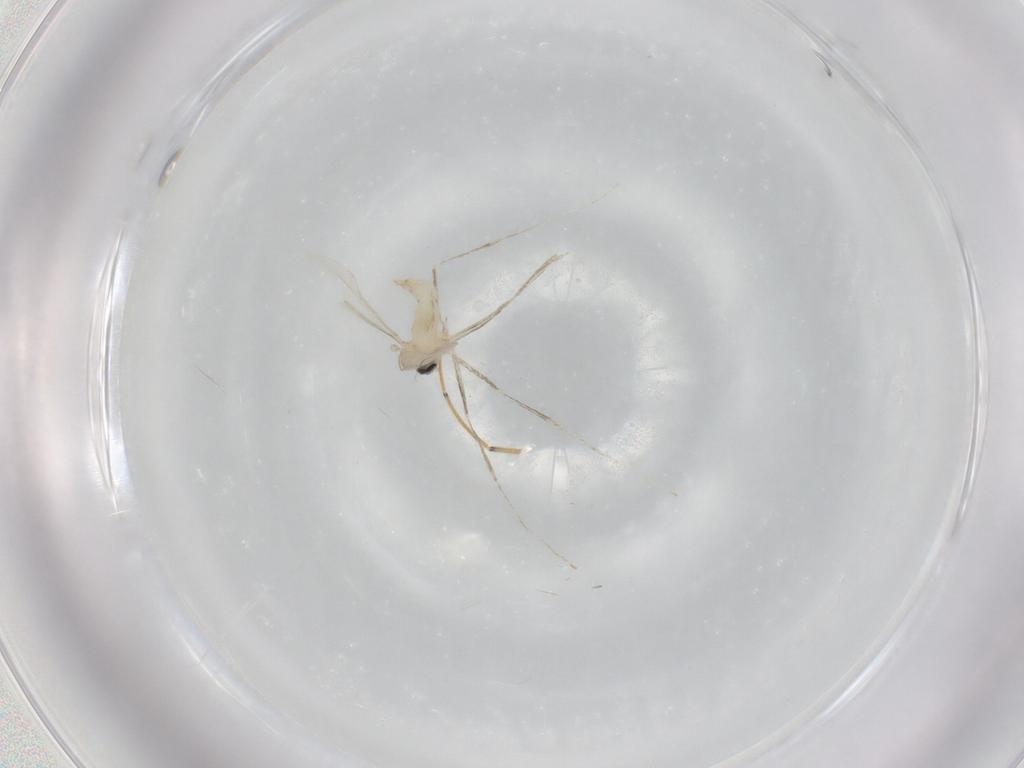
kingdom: Animalia
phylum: Arthropoda
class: Insecta
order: Diptera
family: Cecidomyiidae
